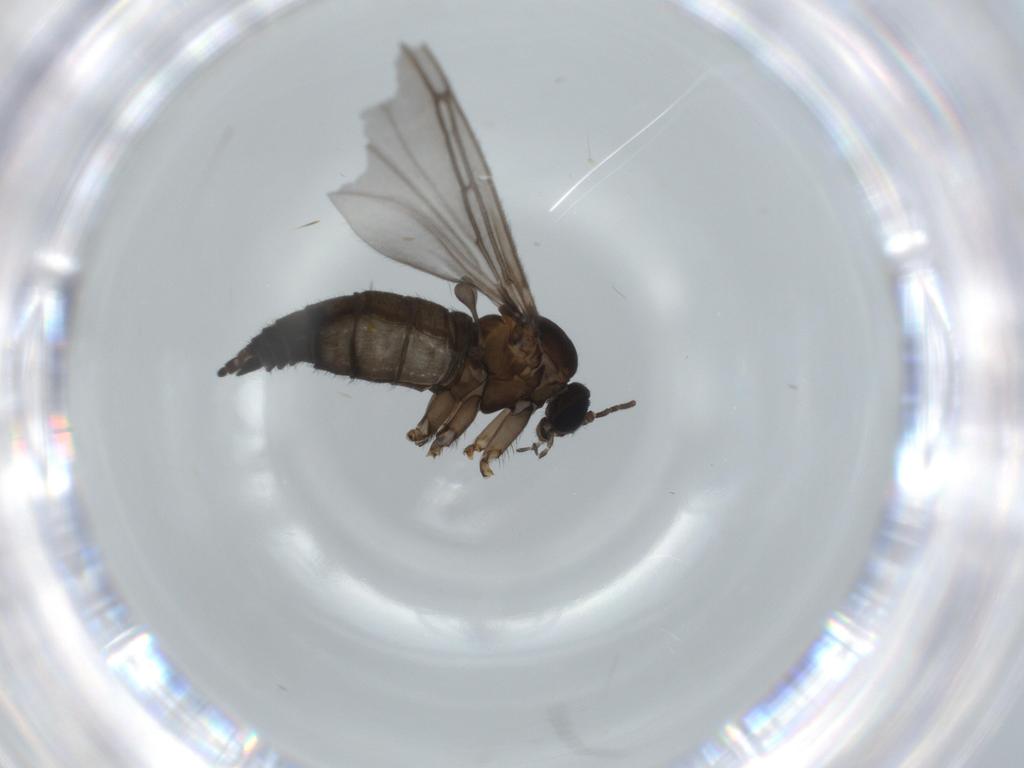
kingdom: Animalia
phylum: Arthropoda
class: Insecta
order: Diptera
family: Sciaridae
